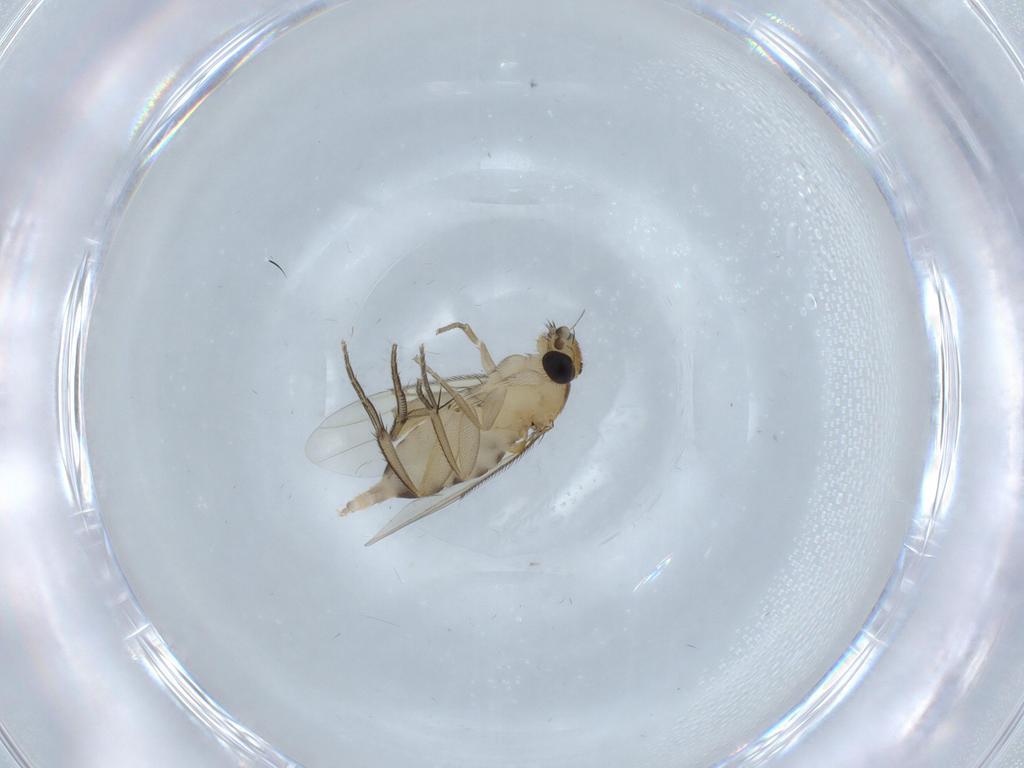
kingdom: Animalia
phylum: Arthropoda
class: Insecta
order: Diptera
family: Phoridae
